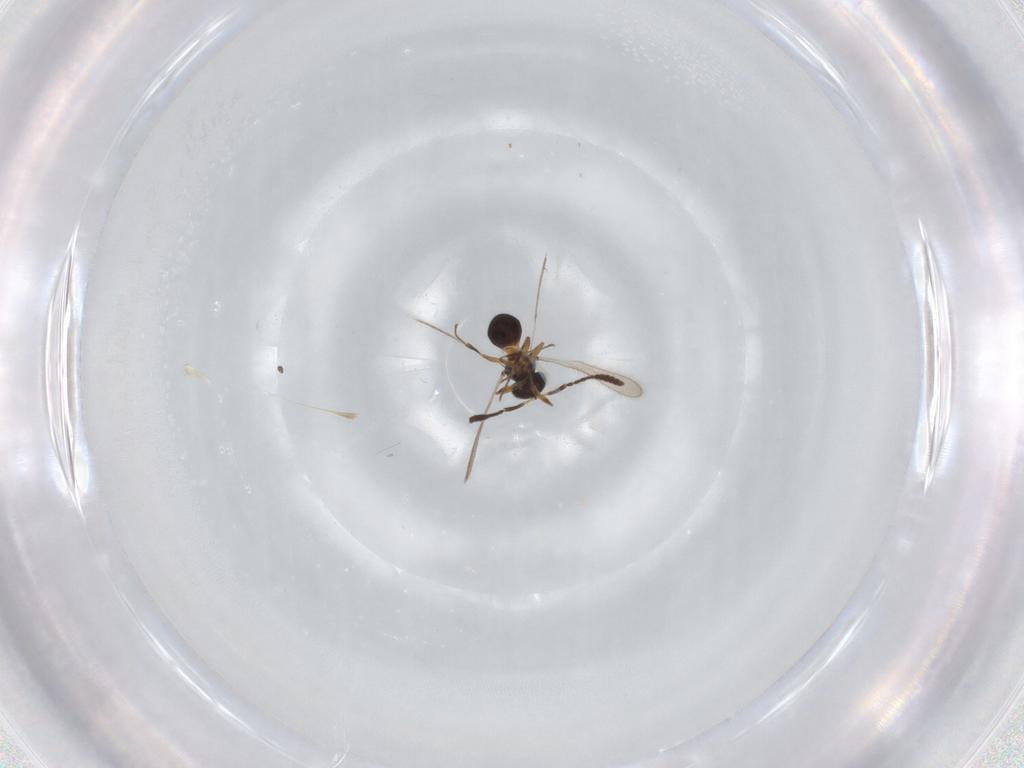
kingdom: Animalia
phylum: Arthropoda
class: Insecta
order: Hymenoptera
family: Scelionidae
